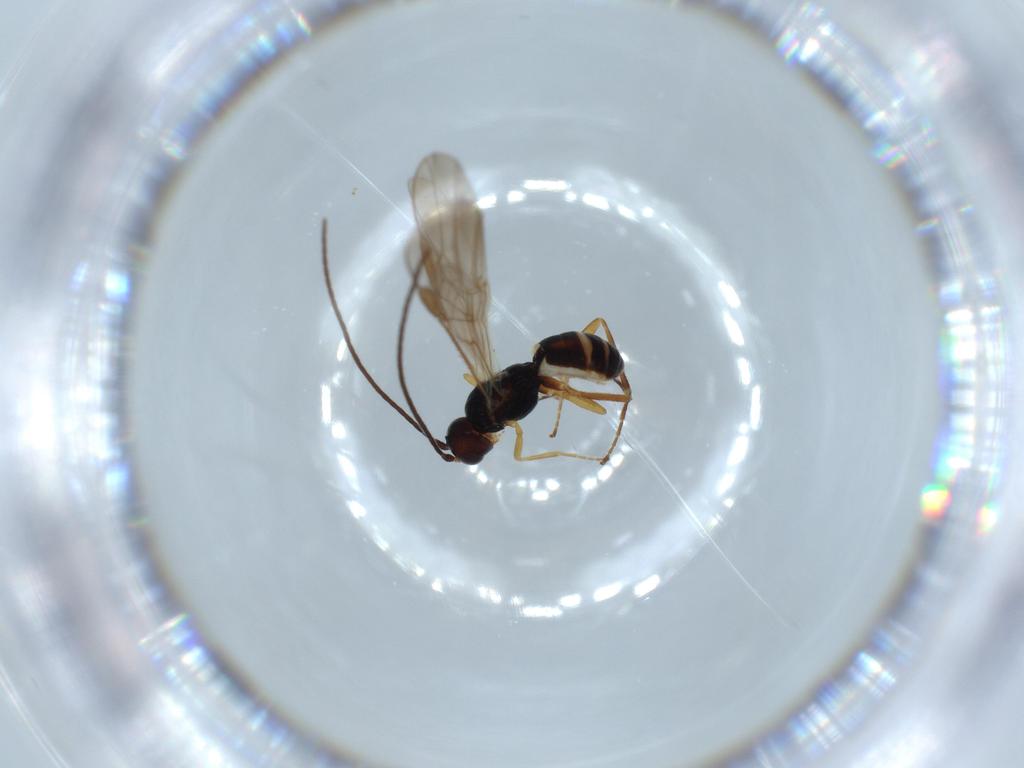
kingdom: Animalia
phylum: Arthropoda
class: Insecta
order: Hymenoptera
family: Braconidae
